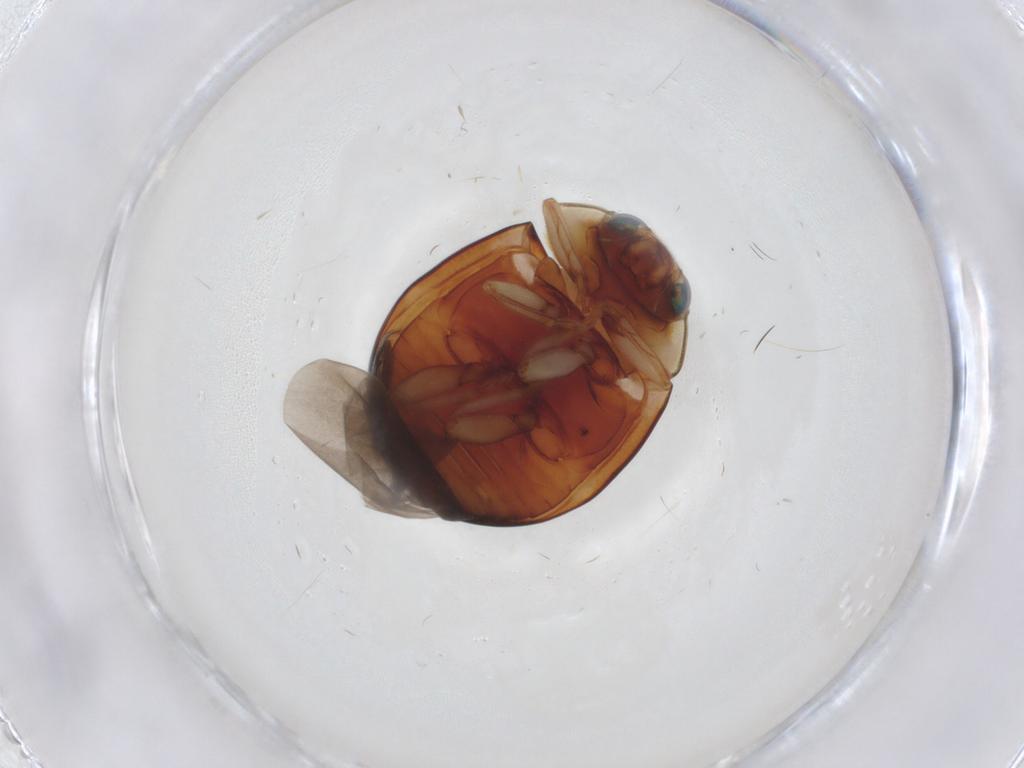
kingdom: Animalia
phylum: Arthropoda
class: Insecta
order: Coleoptera
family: Coccinellidae
